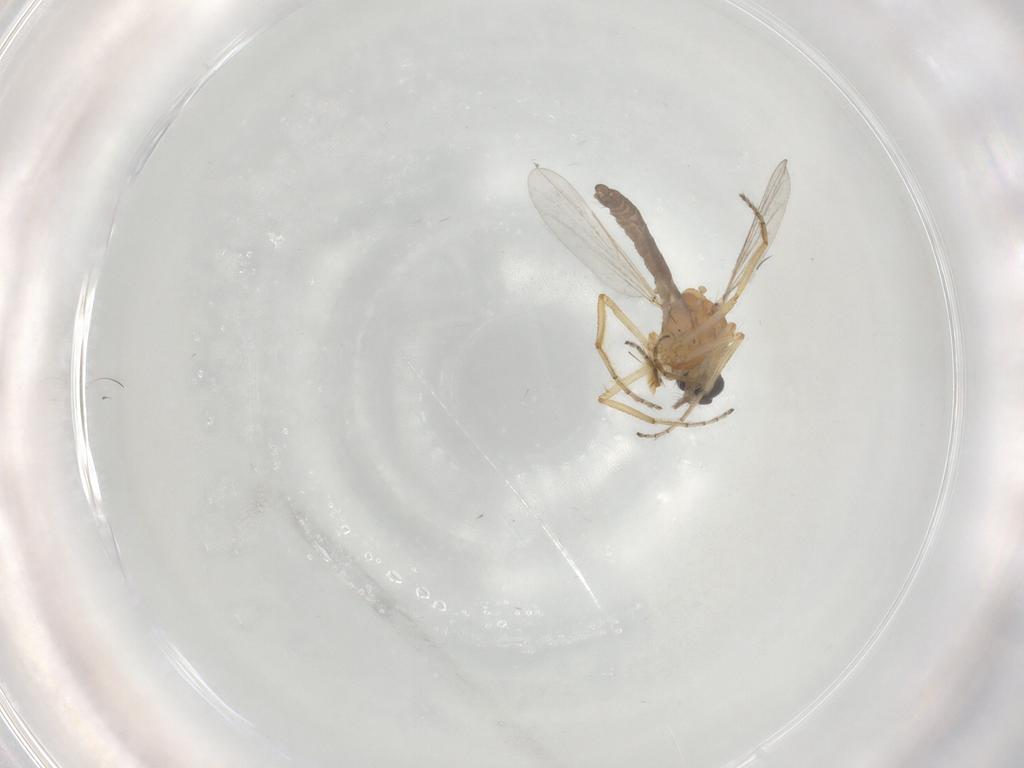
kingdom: Animalia
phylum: Arthropoda
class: Insecta
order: Diptera
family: Ceratopogonidae
